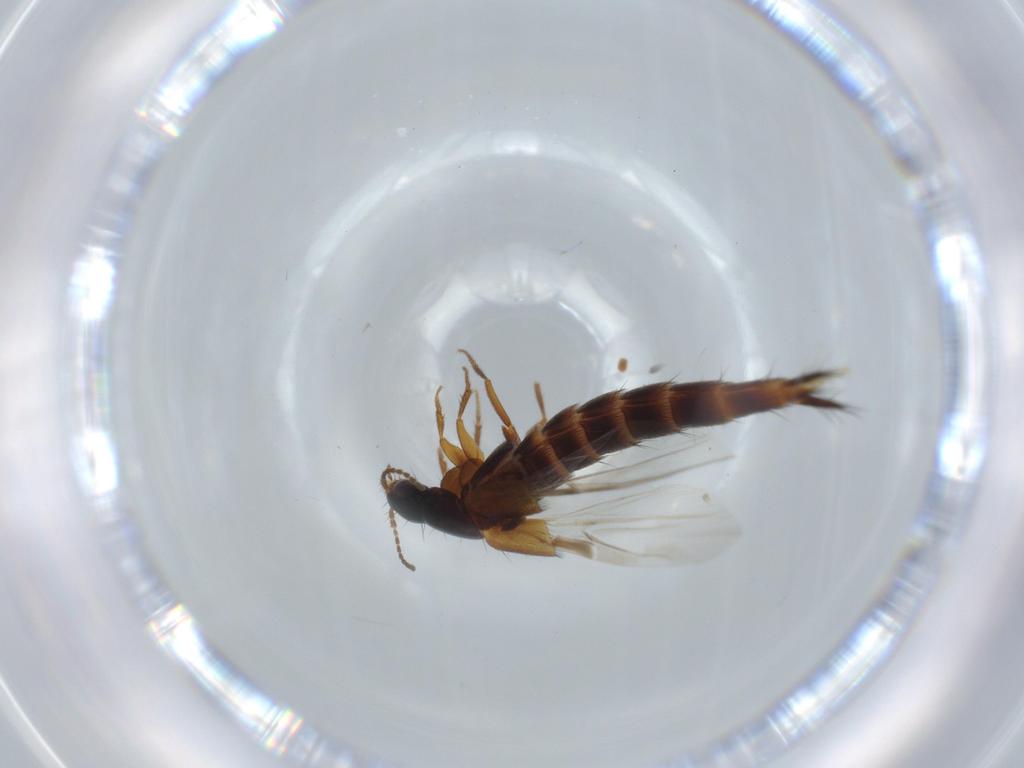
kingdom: Animalia
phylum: Arthropoda
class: Insecta
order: Coleoptera
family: Staphylinidae
